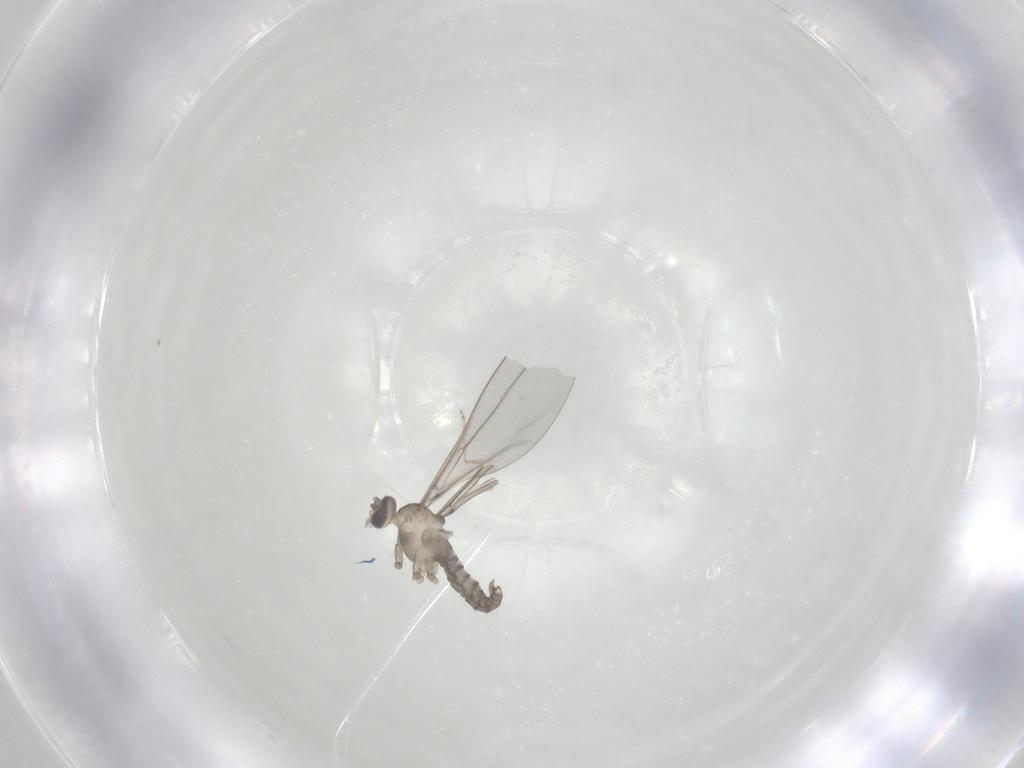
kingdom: Animalia
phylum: Arthropoda
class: Insecta
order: Diptera
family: Cecidomyiidae
